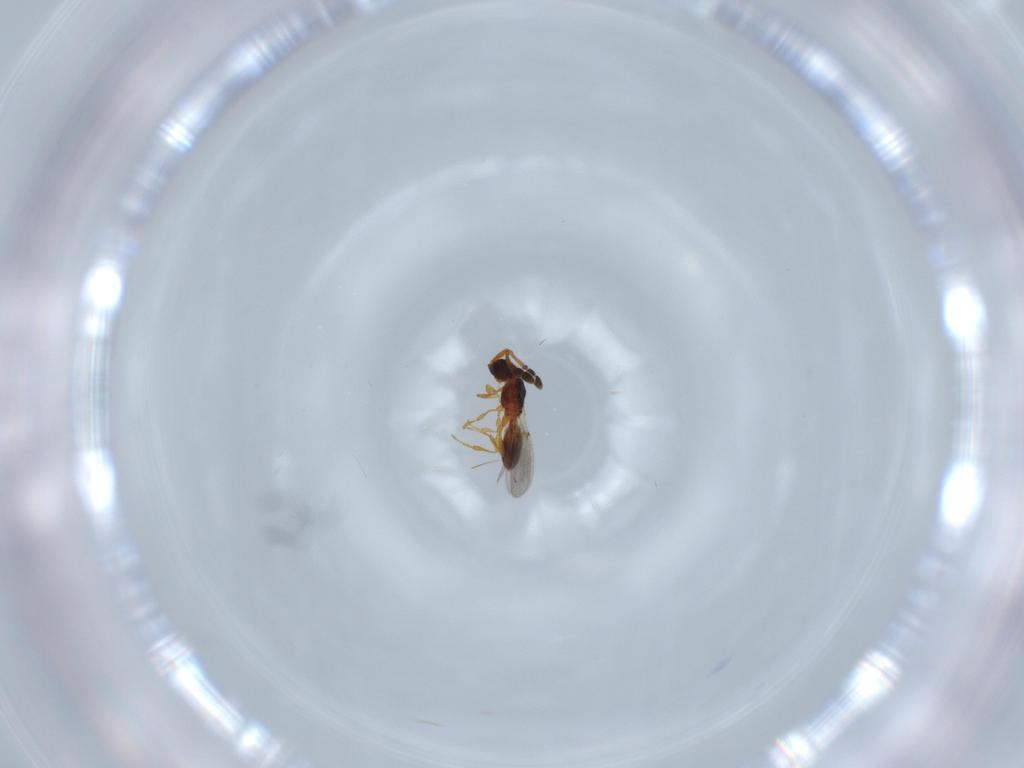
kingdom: Animalia
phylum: Arthropoda
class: Insecta
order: Hymenoptera
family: Diapriidae
